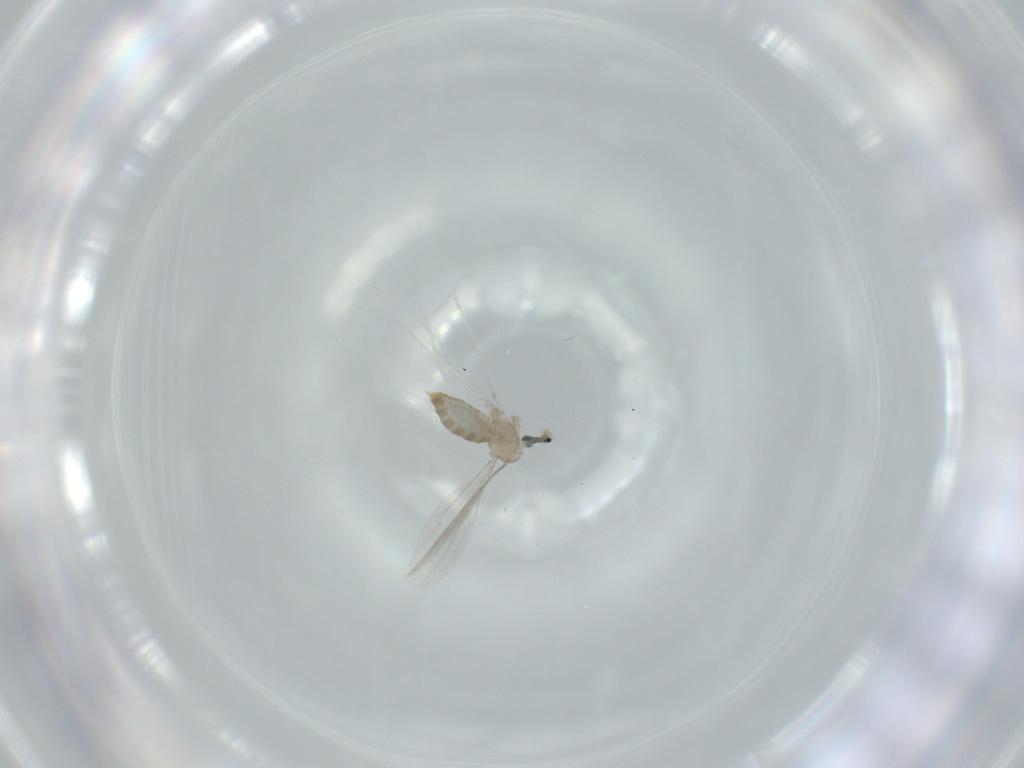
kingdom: Animalia
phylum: Arthropoda
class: Insecta
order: Diptera
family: Cecidomyiidae
